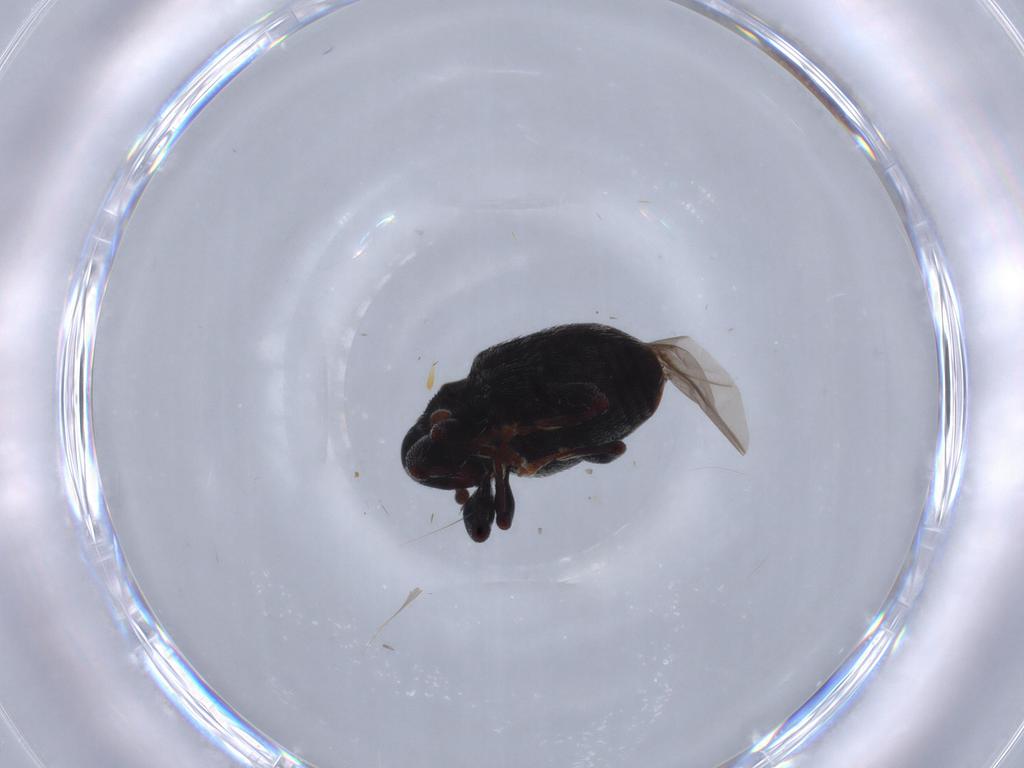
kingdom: Animalia
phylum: Arthropoda
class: Insecta
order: Coleoptera
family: Curculionidae
